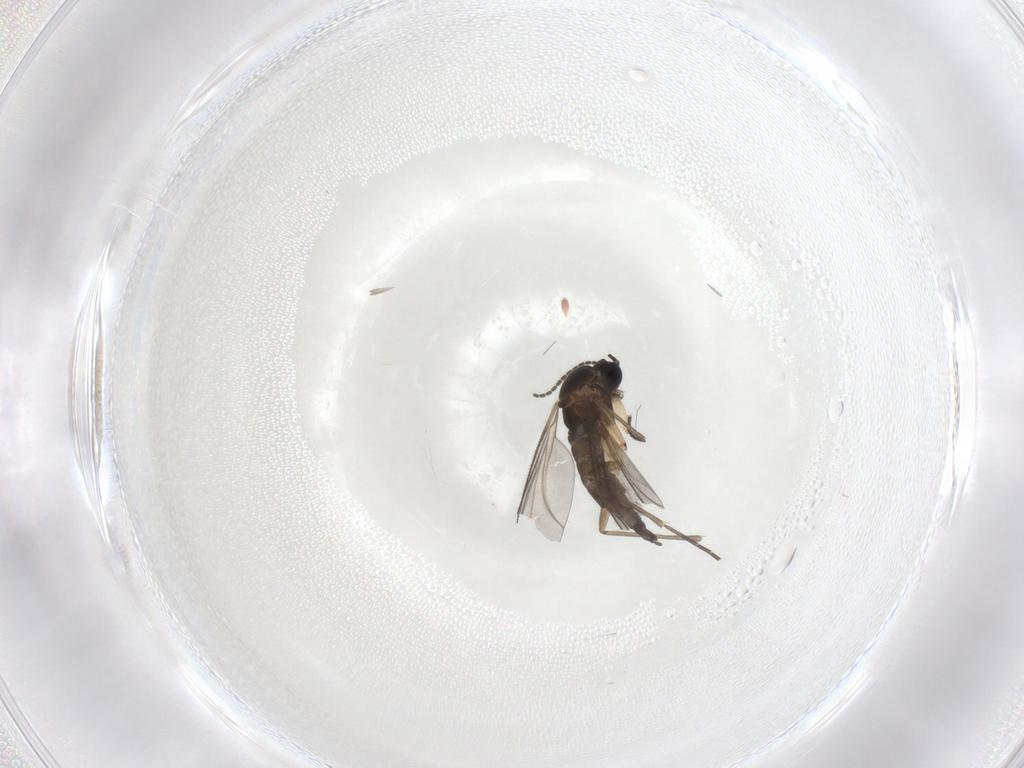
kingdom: Animalia
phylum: Arthropoda
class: Insecta
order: Diptera
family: Sciaridae
